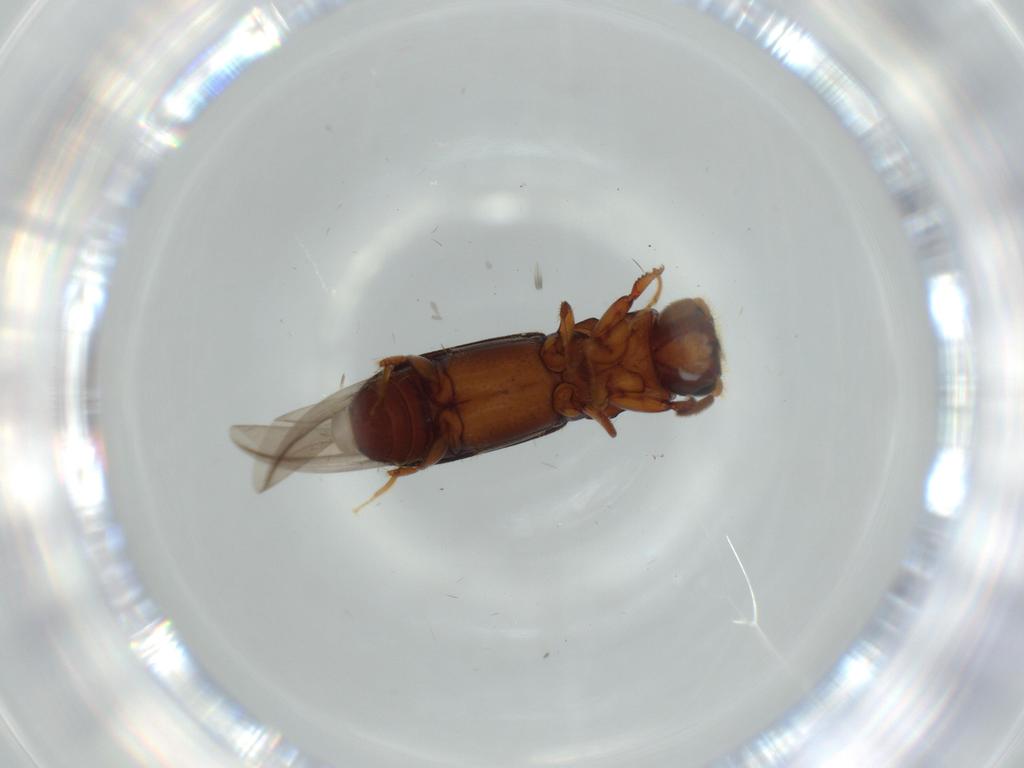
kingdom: Animalia
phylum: Arthropoda
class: Insecta
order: Coleoptera
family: Curculionidae
